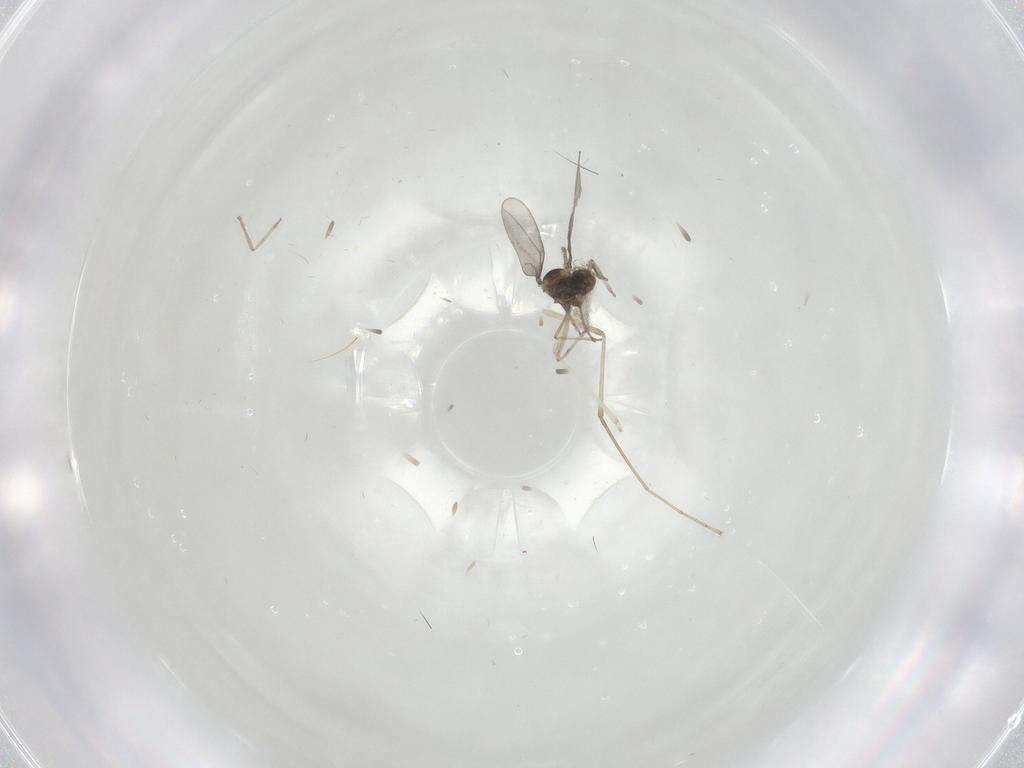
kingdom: Animalia
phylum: Arthropoda
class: Insecta
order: Diptera
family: Cecidomyiidae
